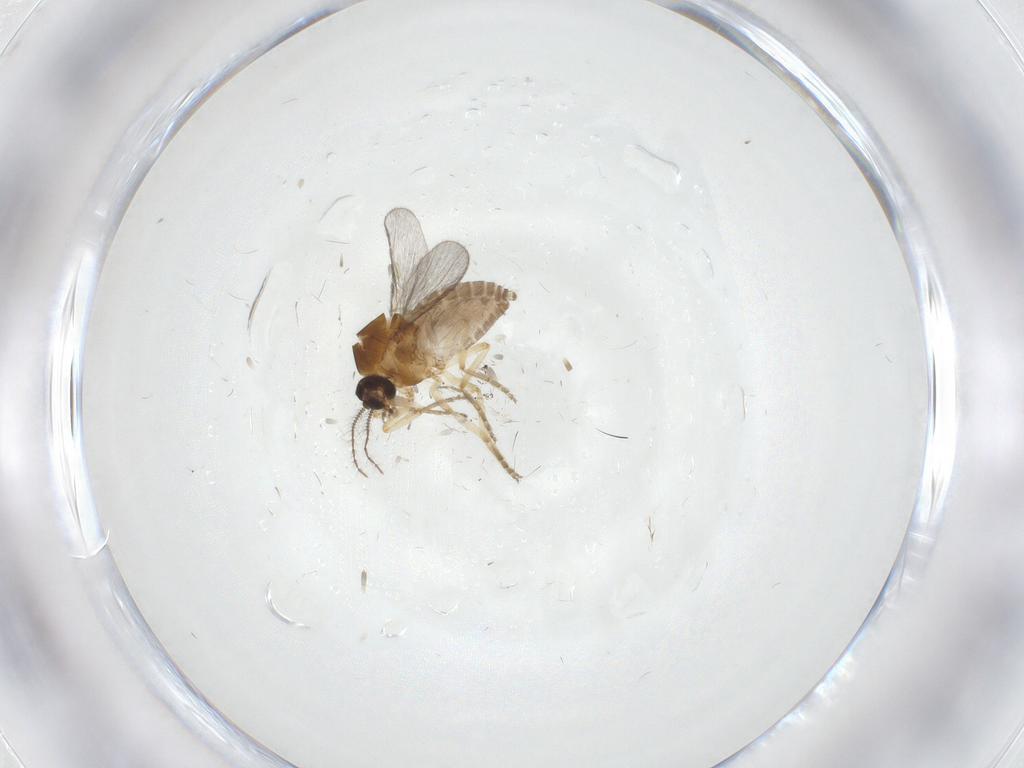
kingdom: Animalia
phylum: Arthropoda
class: Insecta
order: Diptera
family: Ceratopogonidae
